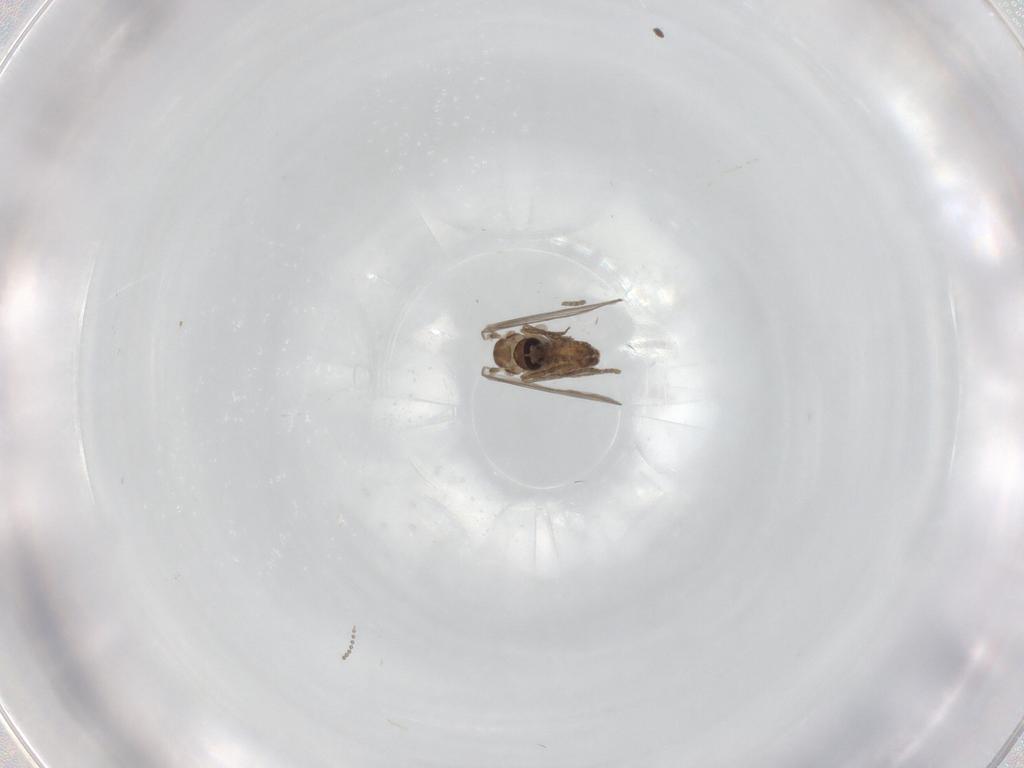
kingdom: Animalia
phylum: Arthropoda
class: Insecta
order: Diptera
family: Psychodidae
